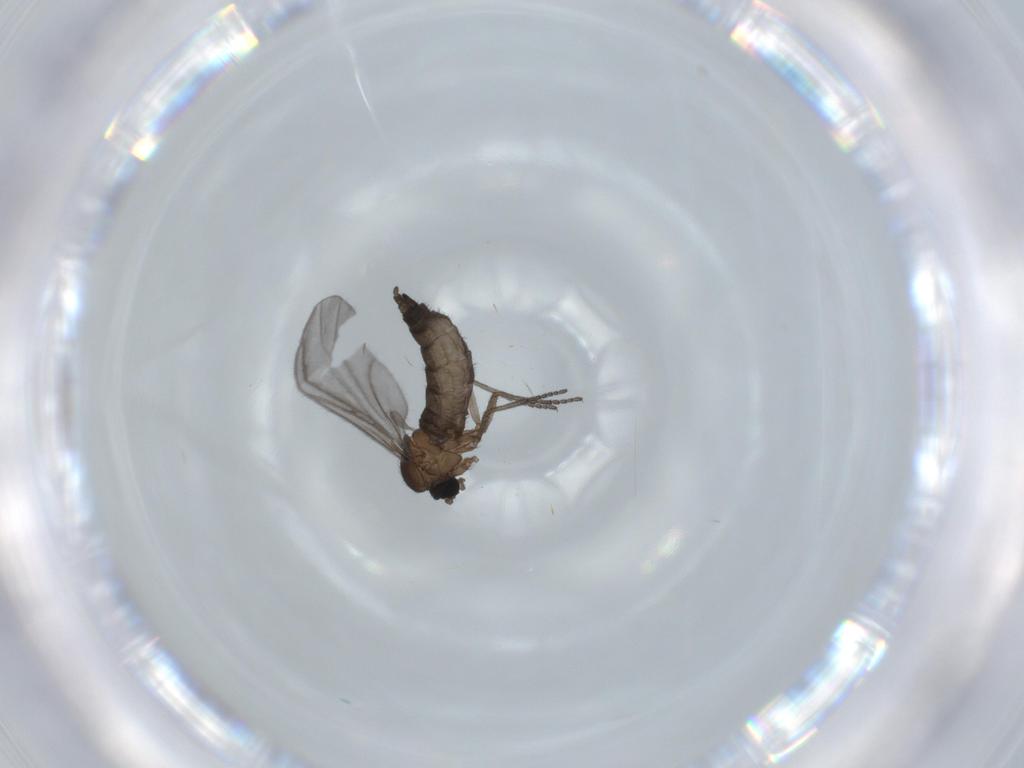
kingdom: Animalia
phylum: Arthropoda
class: Insecta
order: Diptera
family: Sciaridae
